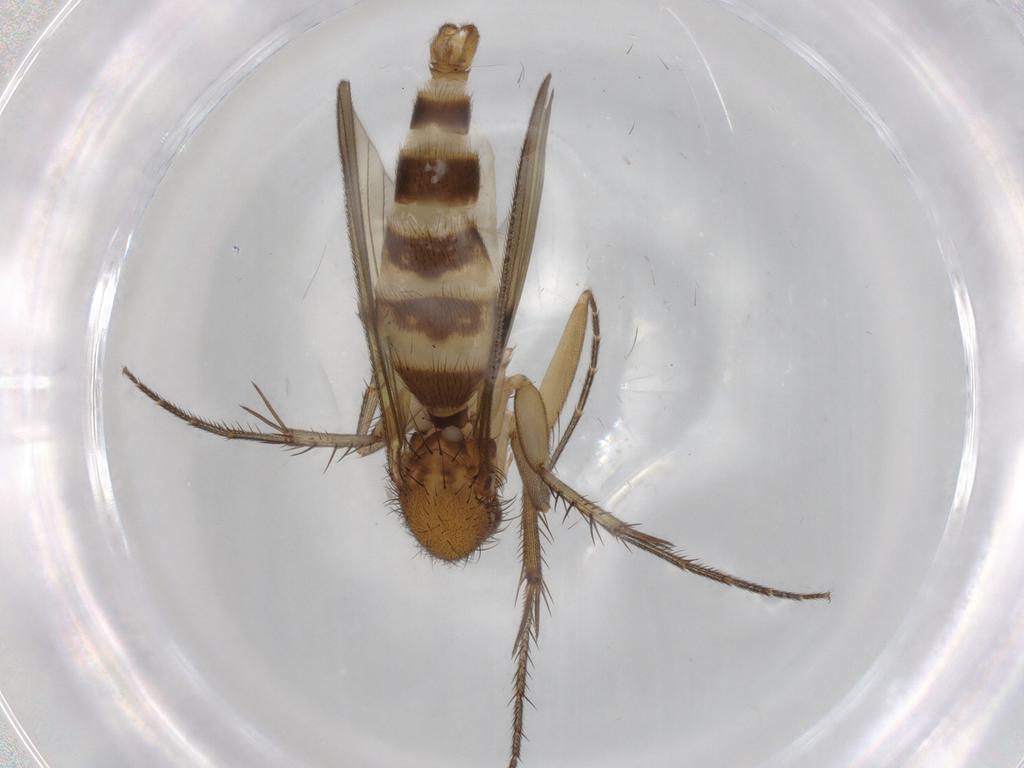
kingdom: Animalia
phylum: Arthropoda
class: Insecta
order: Diptera
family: Mycetophilidae
